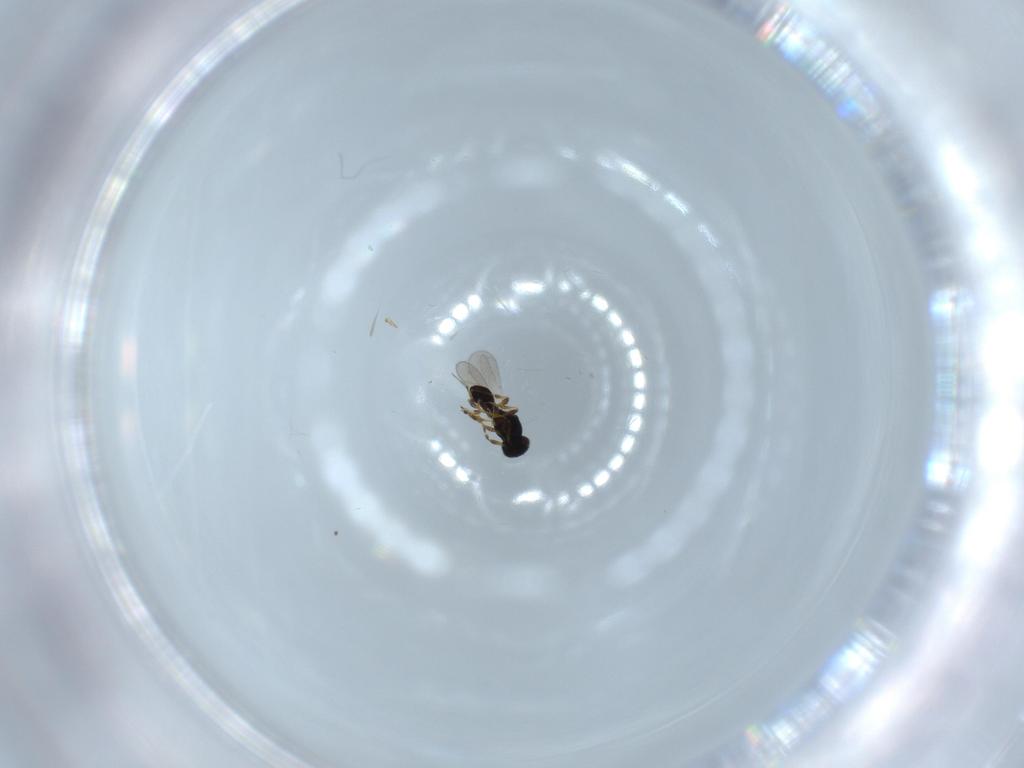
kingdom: Animalia
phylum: Arthropoda
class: Insecta
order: Hymenoptera
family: Platygastridae
